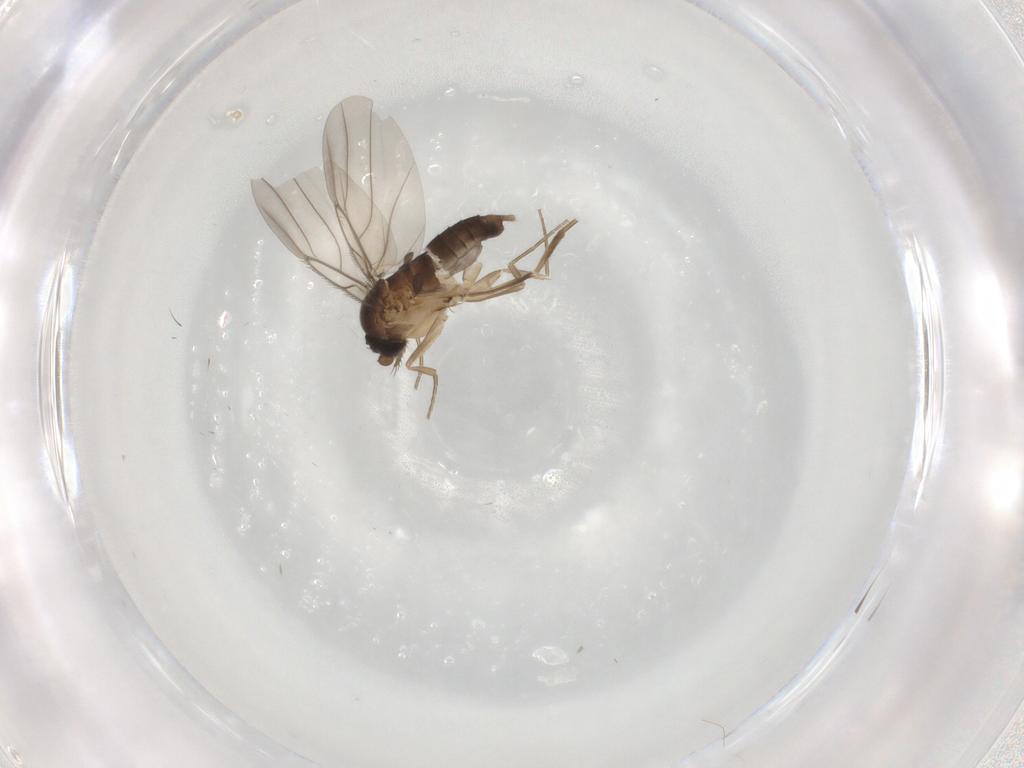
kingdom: Animalia
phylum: Arthropoda
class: Insecta
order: Diptera
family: Drosophilidae
